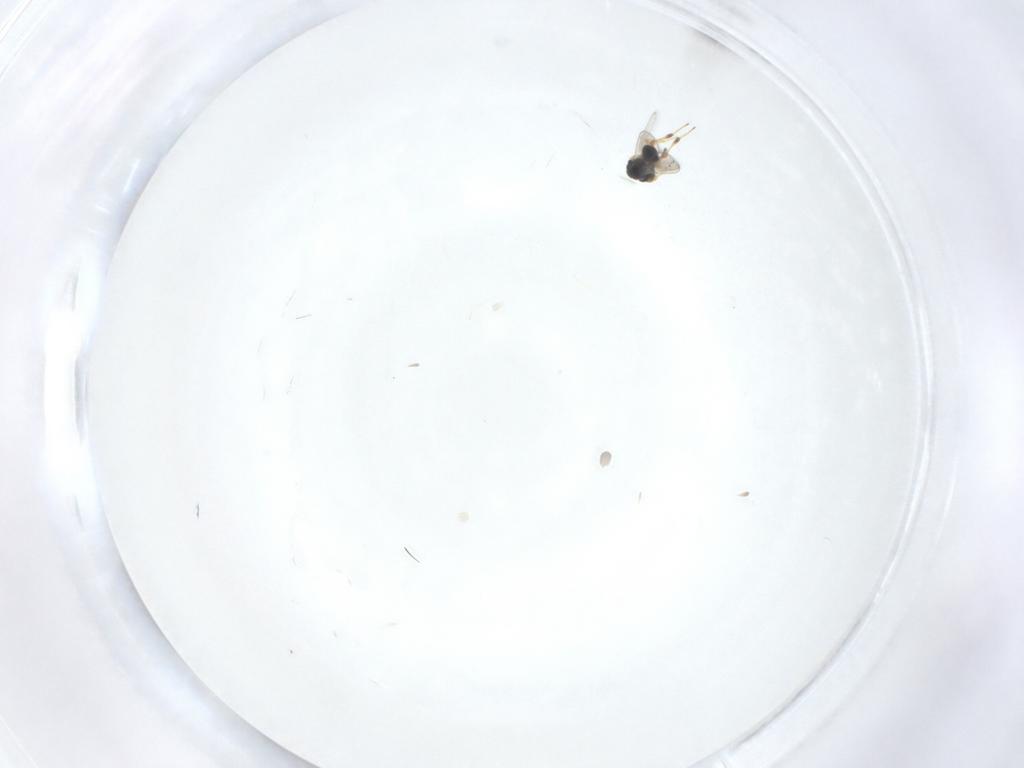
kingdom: Animalia
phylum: Arthropoda
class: Insecta
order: Hymenoptera
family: Platygastridae
